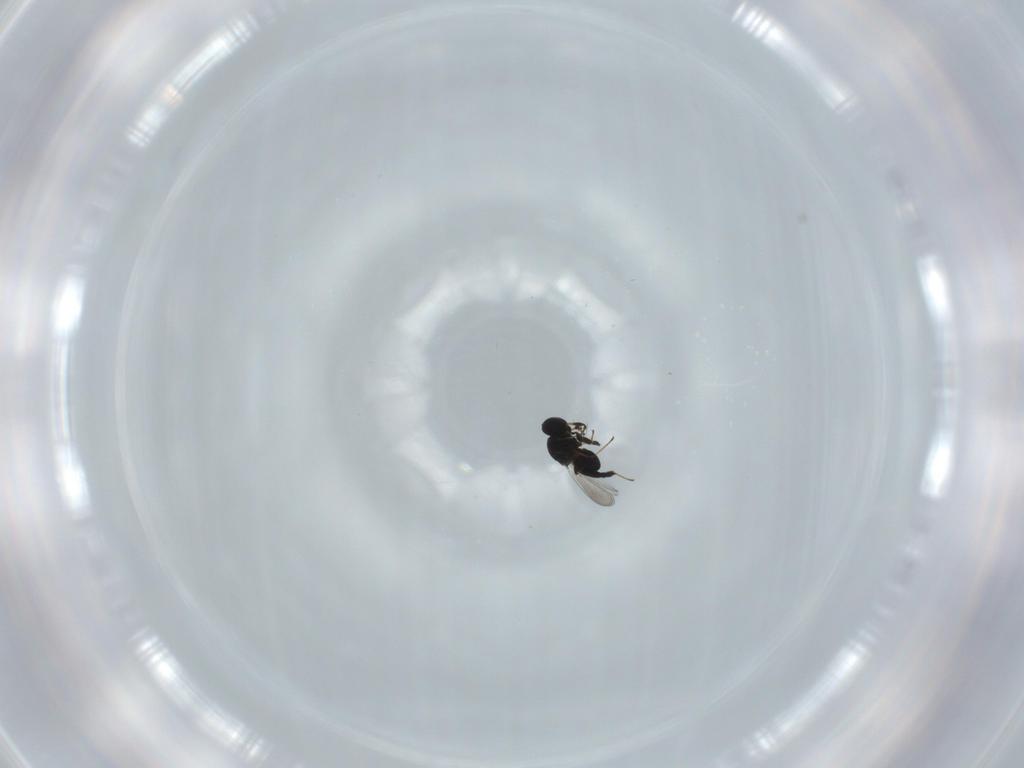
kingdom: Animalia
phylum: Arthropoda
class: Insecta
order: Hymenoptera
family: Platygastridae
